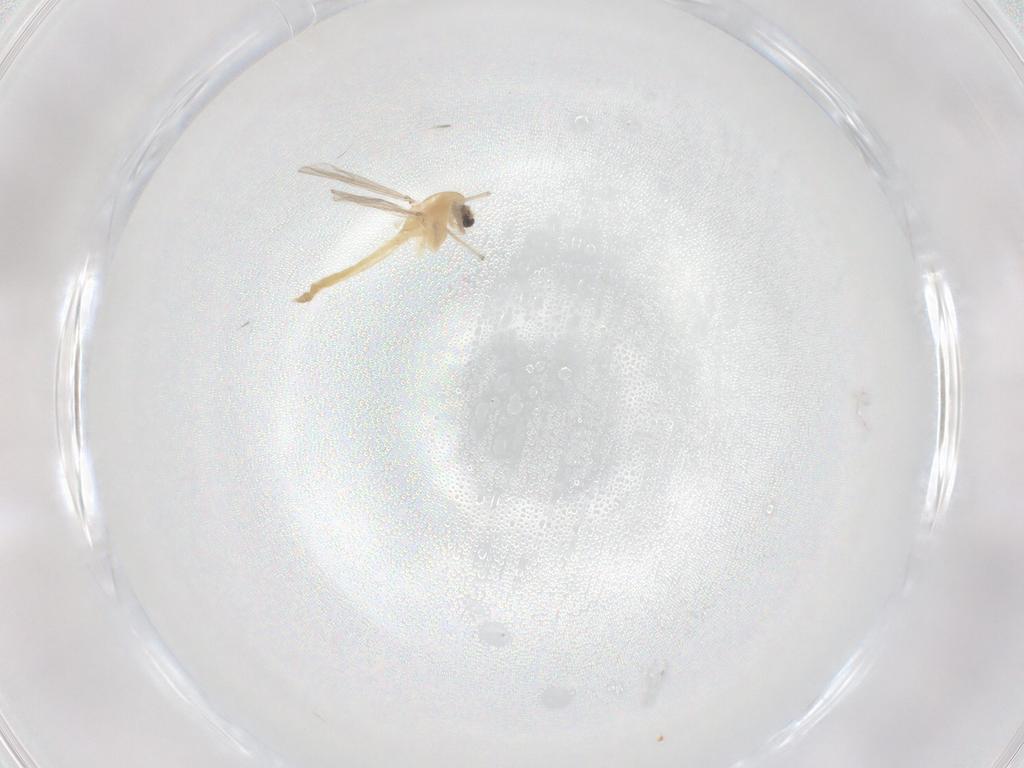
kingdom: Animalia
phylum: Arthropoda
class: Insecta
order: Diptera
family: Chironomidae
